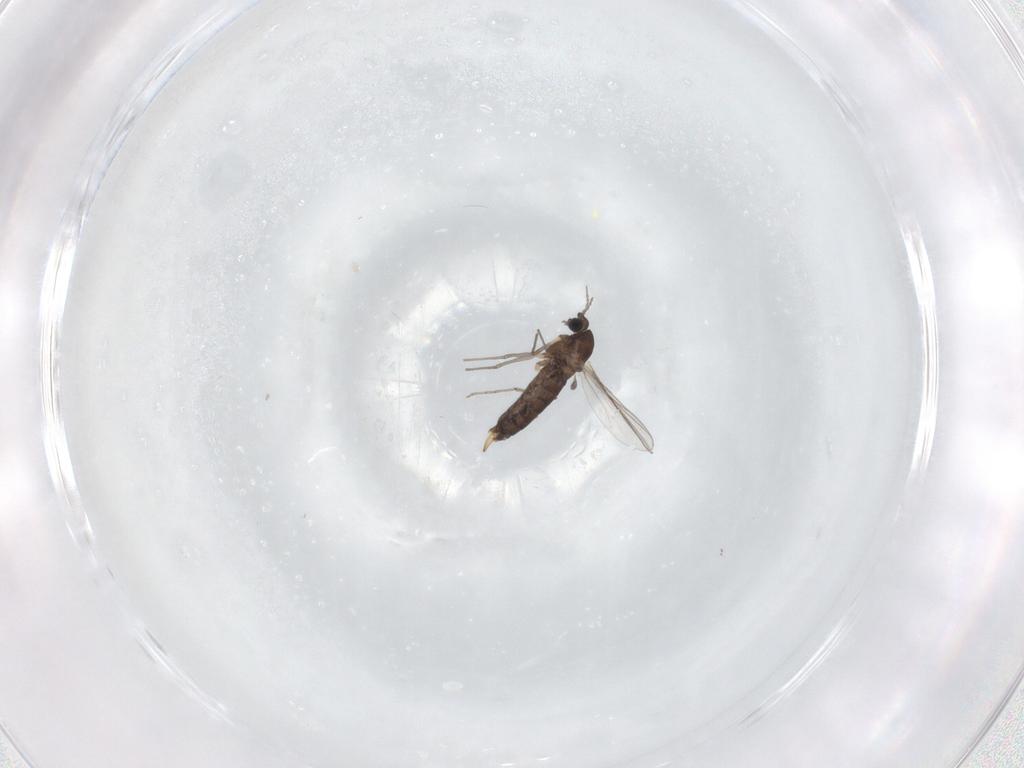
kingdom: Animalia
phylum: Arthropoda
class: Insecta
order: Diptera
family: Chironomidae
